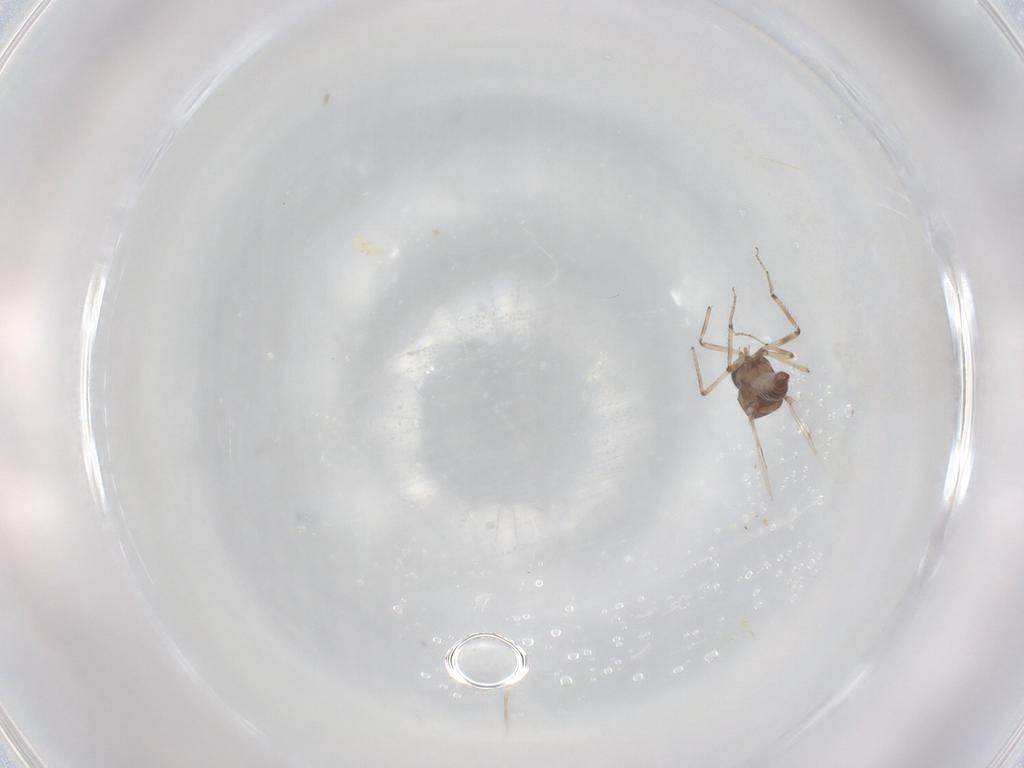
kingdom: Animalia
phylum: Arthropoda
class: Insecta
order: Diptera
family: Ceratopogonidae
